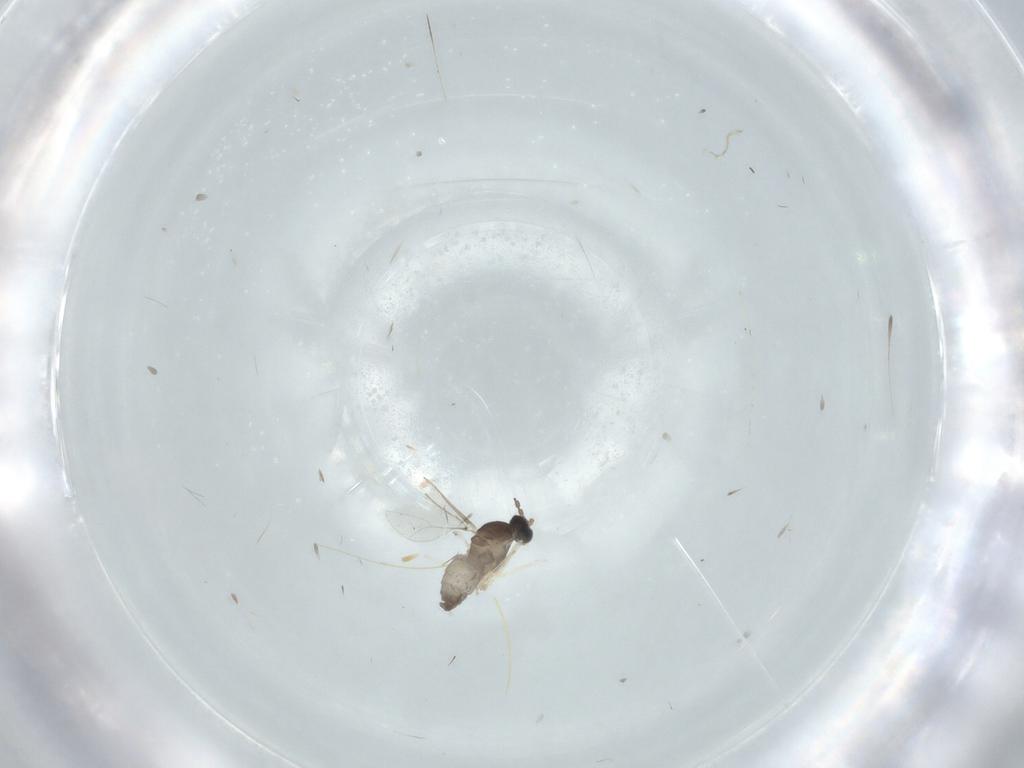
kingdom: Animalia
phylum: Arthropoda
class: Insecta
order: Diptera
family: Cecidomyiidae
